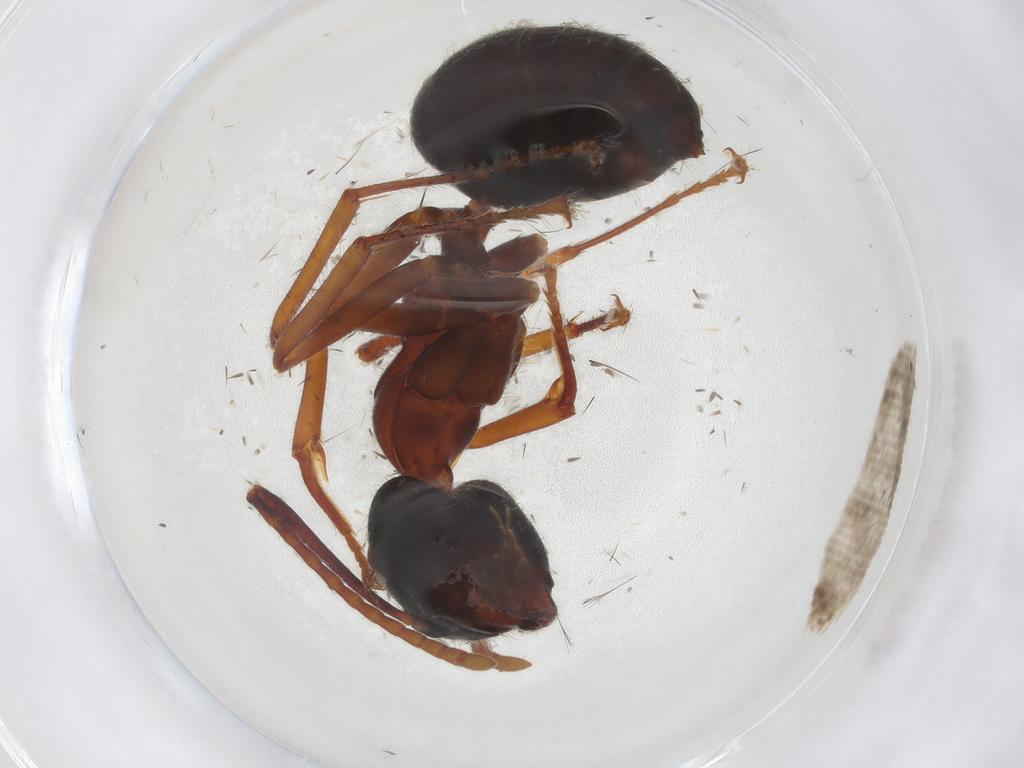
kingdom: Animalia
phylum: Arthropoda
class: Insecta
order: Hymenoptera
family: Formicidae
